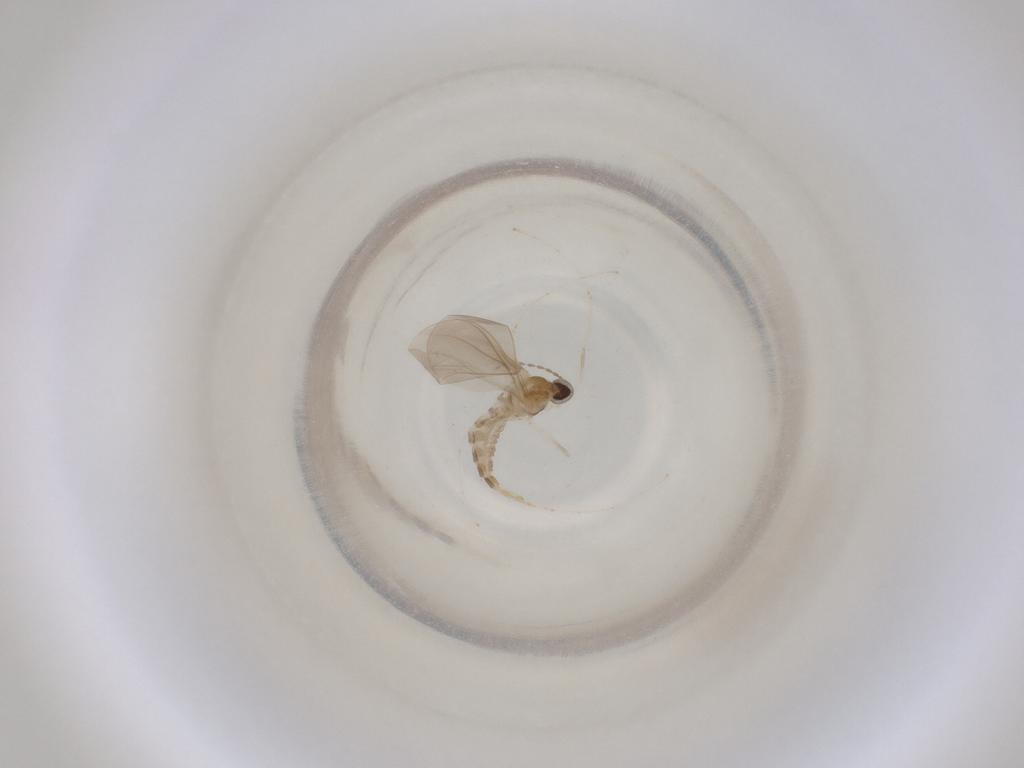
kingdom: Animalia
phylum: Arthropoda
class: Insecta
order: Diptera
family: Cecidomyiidae
